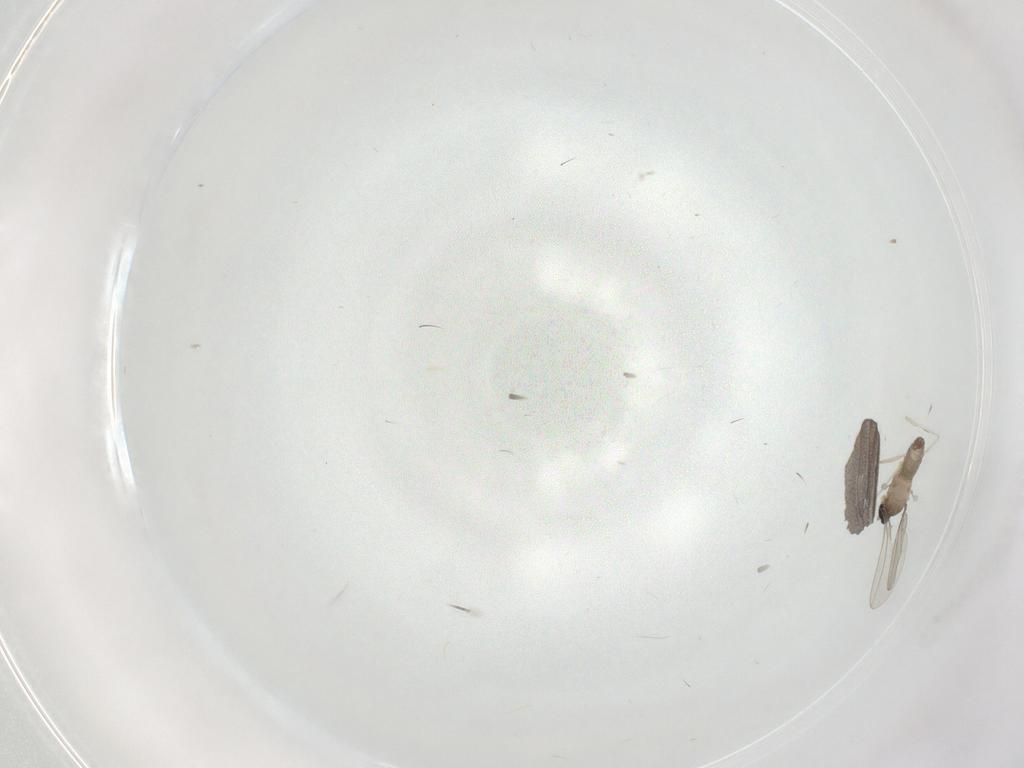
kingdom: Animalia
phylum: Arthropoda
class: Insecta
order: Diptera
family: Cecidomyiidae
